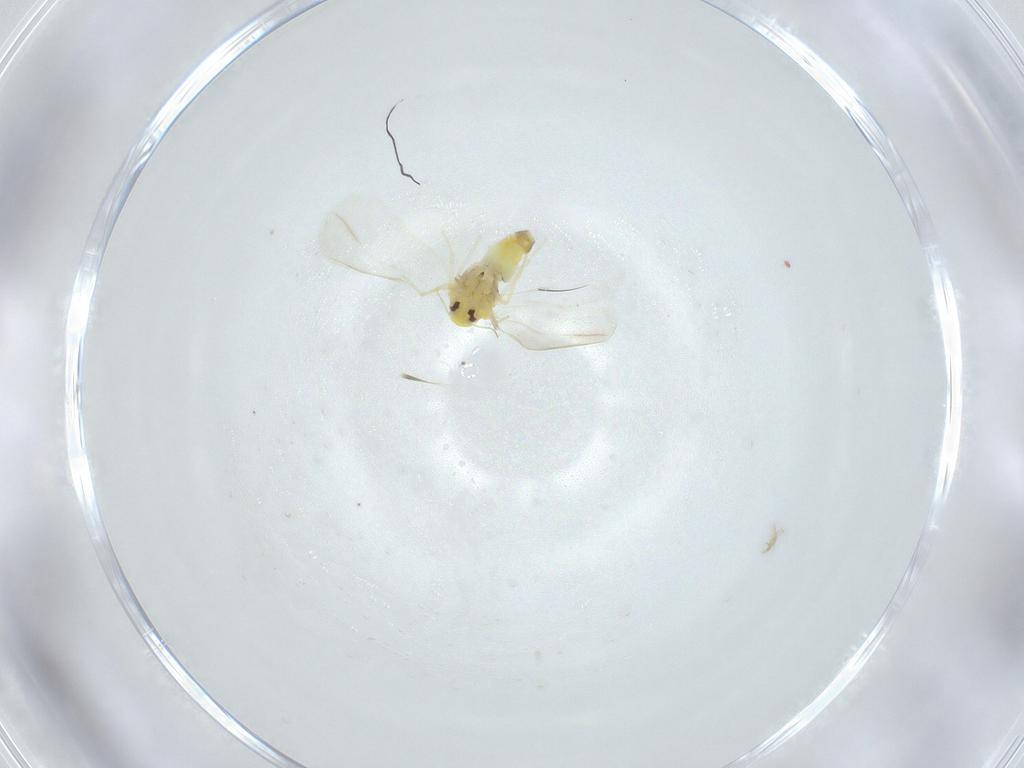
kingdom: Animalia
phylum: Arthropoda
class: Insecta
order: Hemiptera
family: Aleyrodidae
